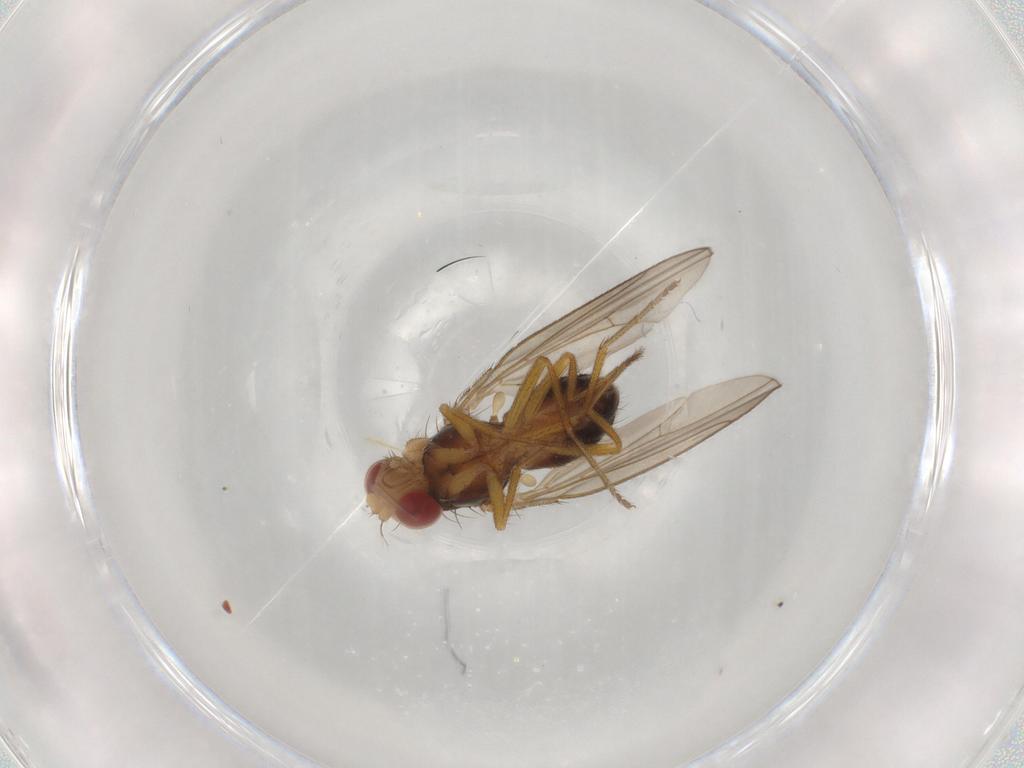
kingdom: Animalia
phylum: Arthropoda
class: Insecta
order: Diptera
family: Drosophilidae
